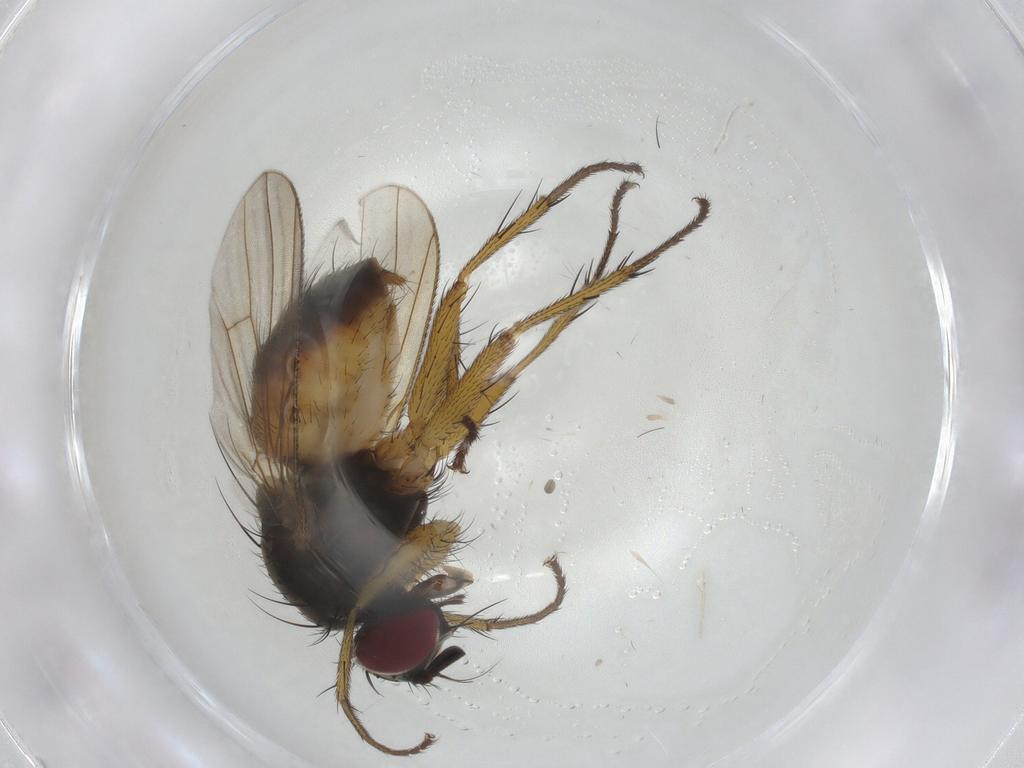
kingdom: Animalia
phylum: Arthropoda
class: Insecta
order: Diptera
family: Muscidae
